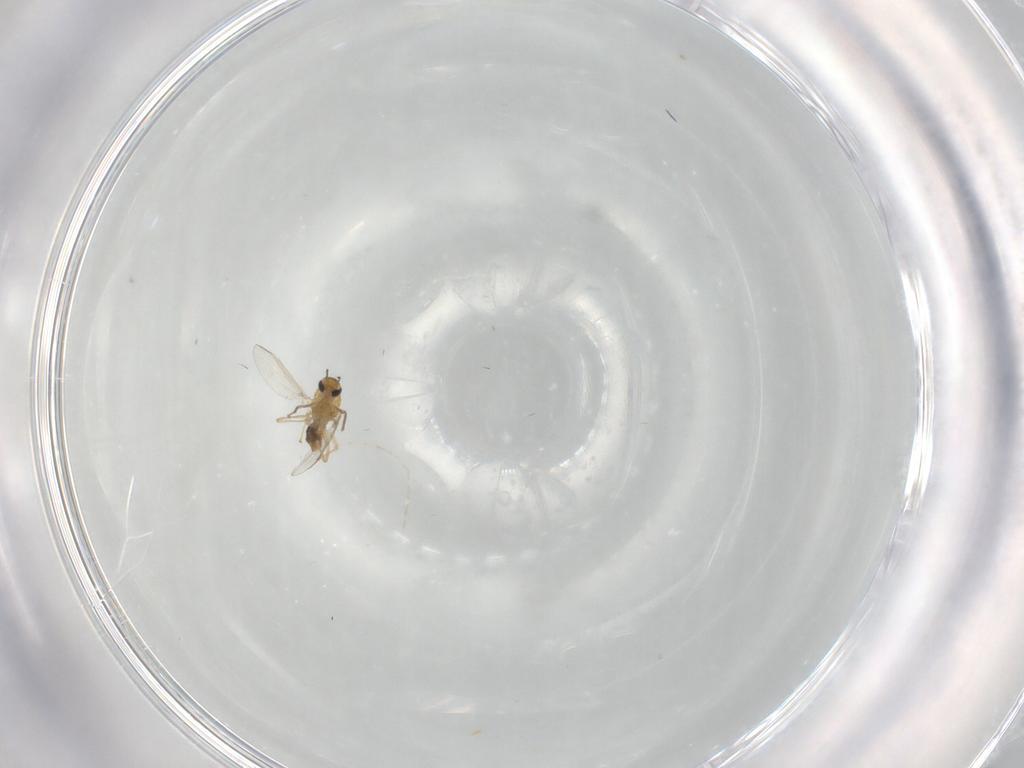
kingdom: Animalia
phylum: Arthropoda
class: Insecta
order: Diptera
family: Chironomidae
